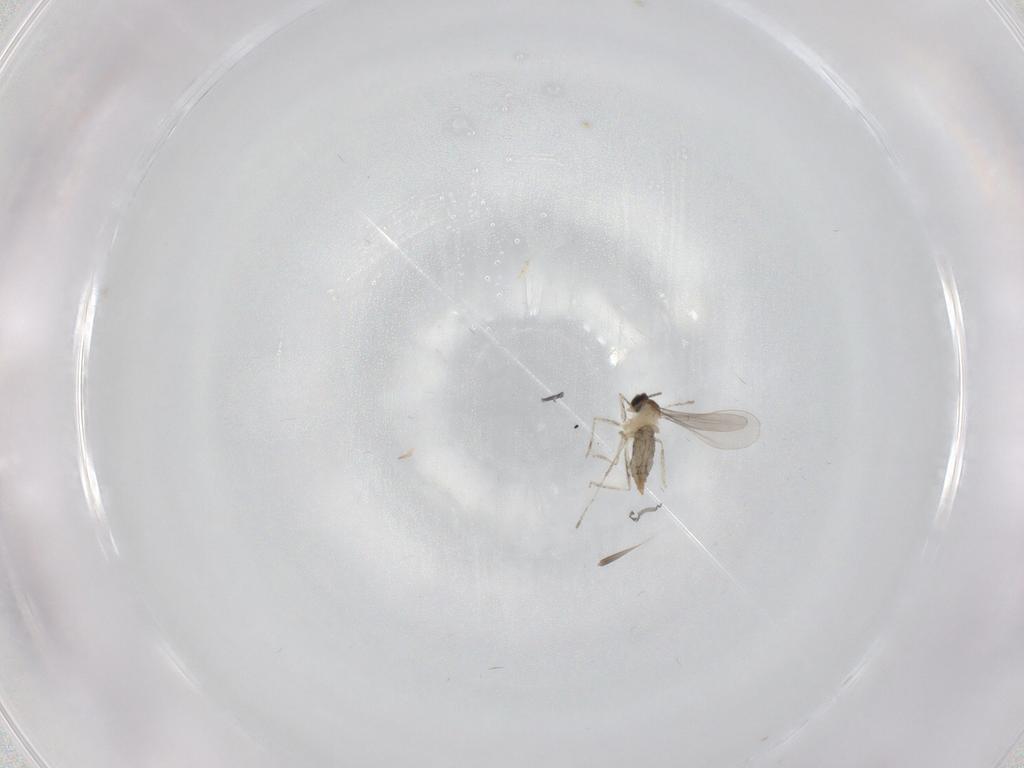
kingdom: Animalia
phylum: Arthropoda
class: Insecta
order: Diptera
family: Cecidomyiidae
